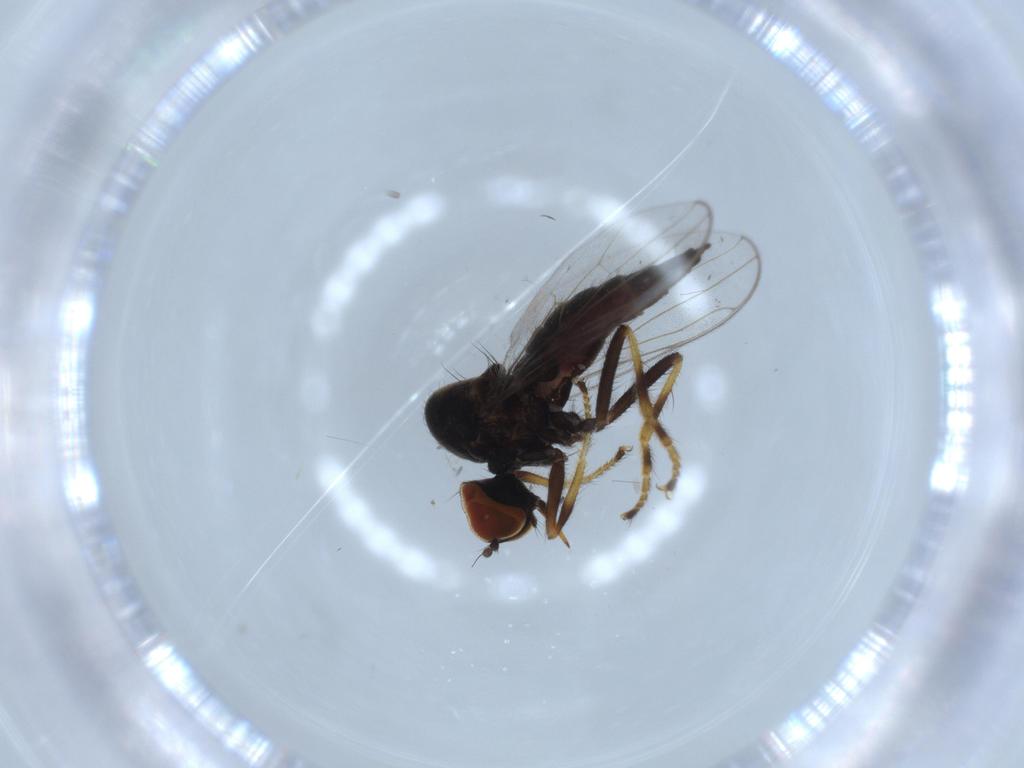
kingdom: Animalia
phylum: Arthropoda
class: Insecta
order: Diptera
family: Hybotidae
